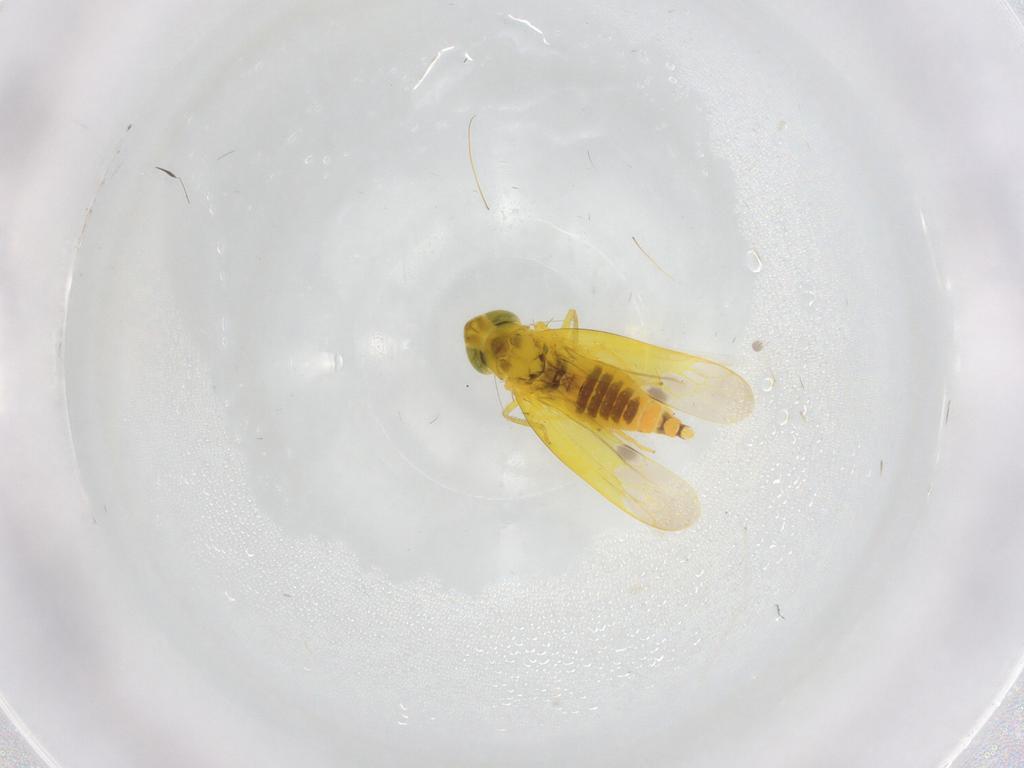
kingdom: Animalia
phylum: Arthropoda
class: Insecta
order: Hemiptera
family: Cicadellidae
